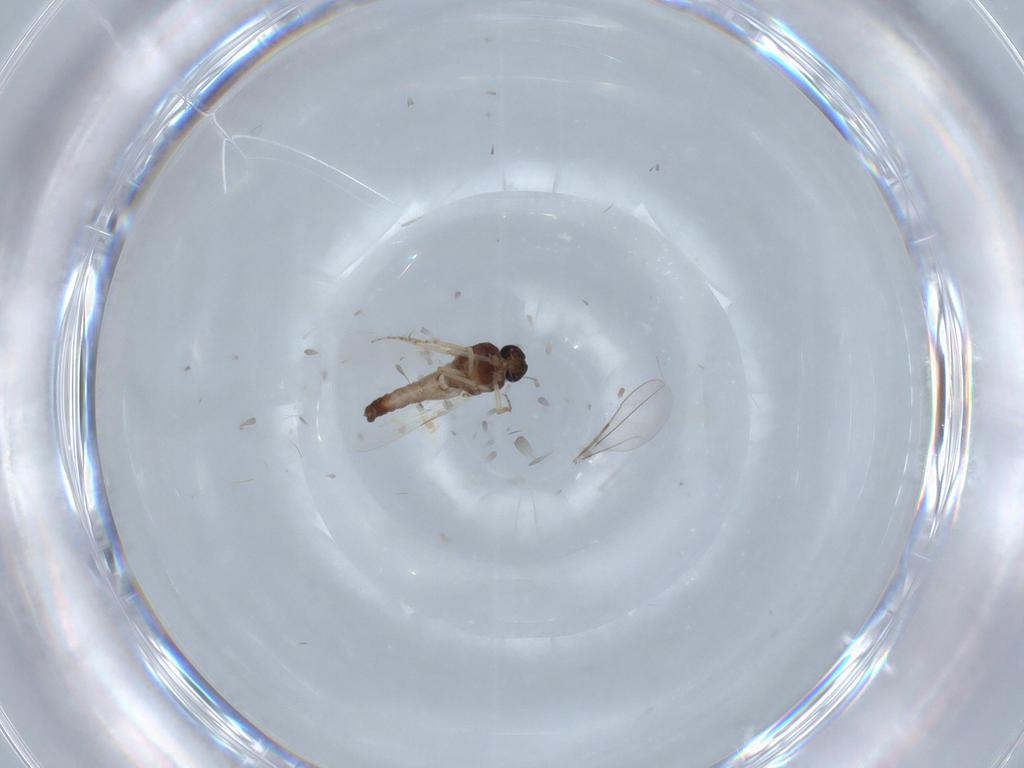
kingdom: Animalia
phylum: Arthropoda
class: Insecta
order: Diptera
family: Ceratopogonidae
